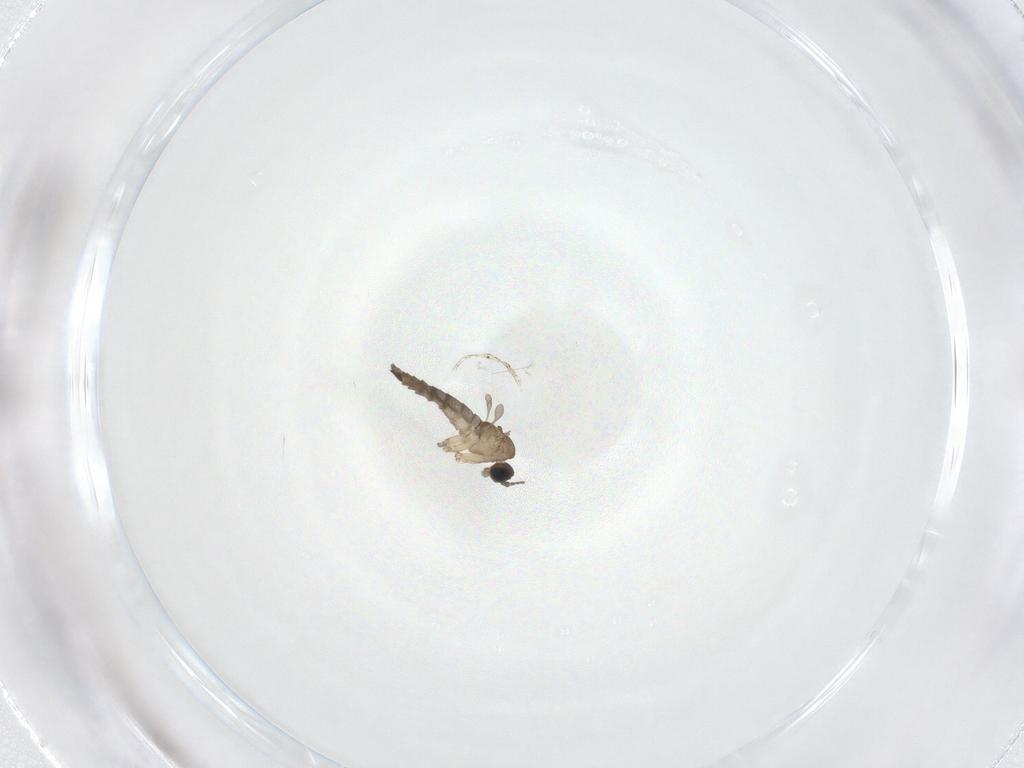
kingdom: Animalia
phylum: Arthropoda
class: Insecta
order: Diptera
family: Sciaridae
